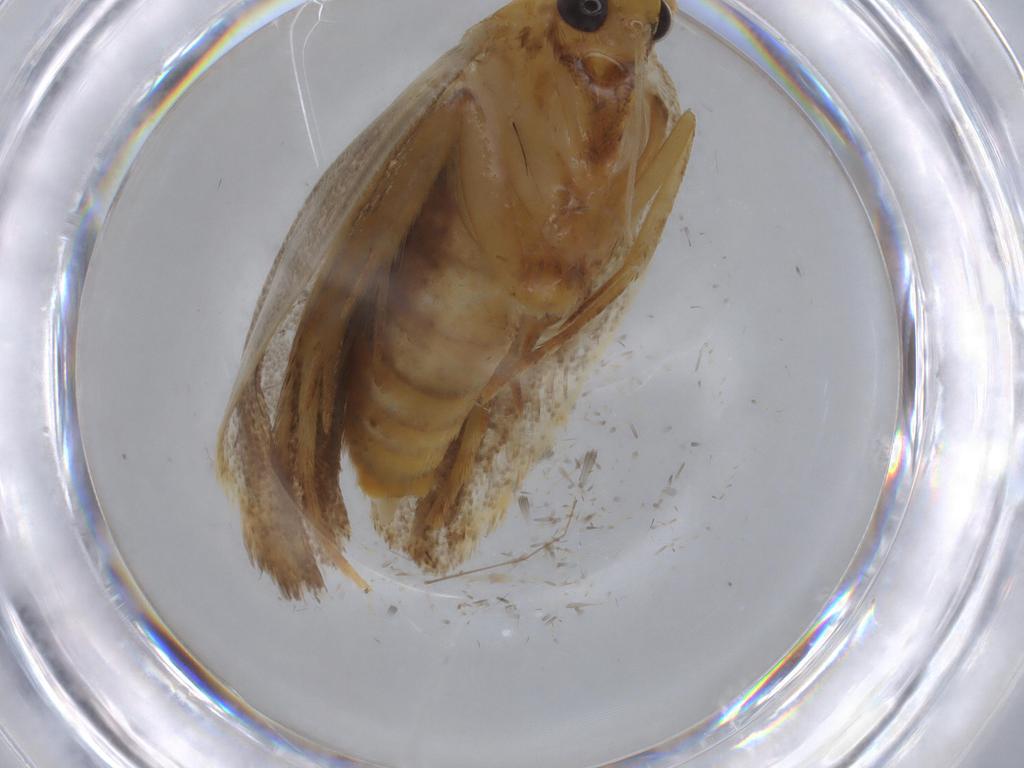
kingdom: Animalia
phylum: Arthropoda
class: Insecta
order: Lepidoptera
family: Lecithoceridae
